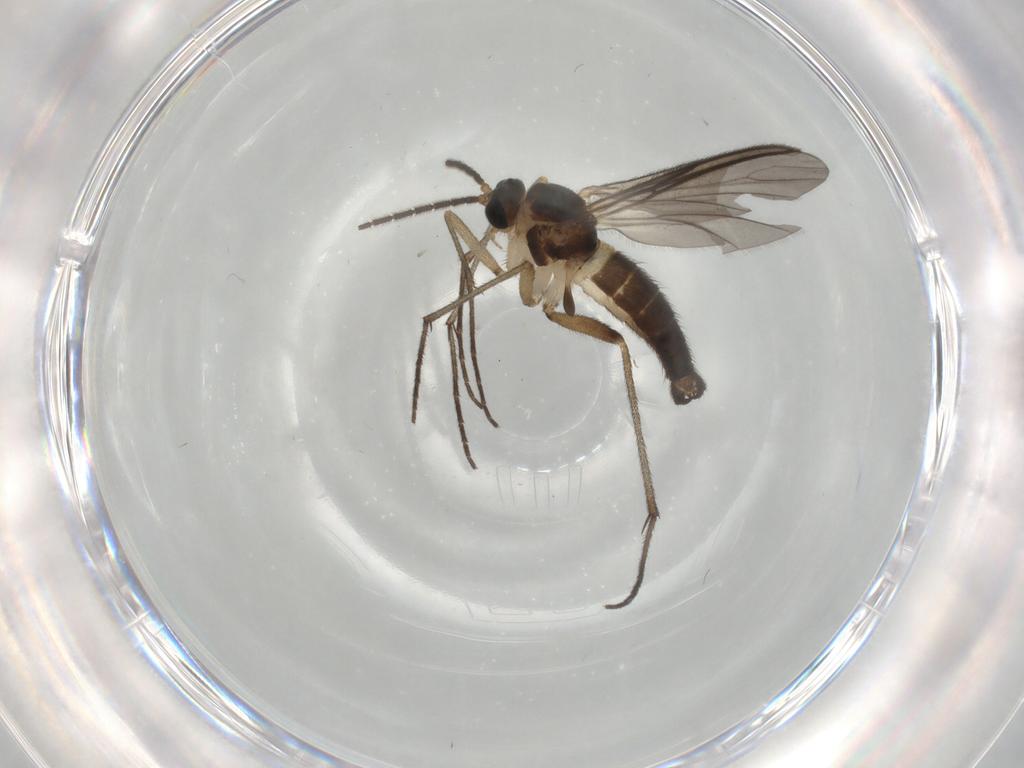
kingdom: Animalia
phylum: Arthropoda
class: Insecta
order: Diptera
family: Sciaridae
